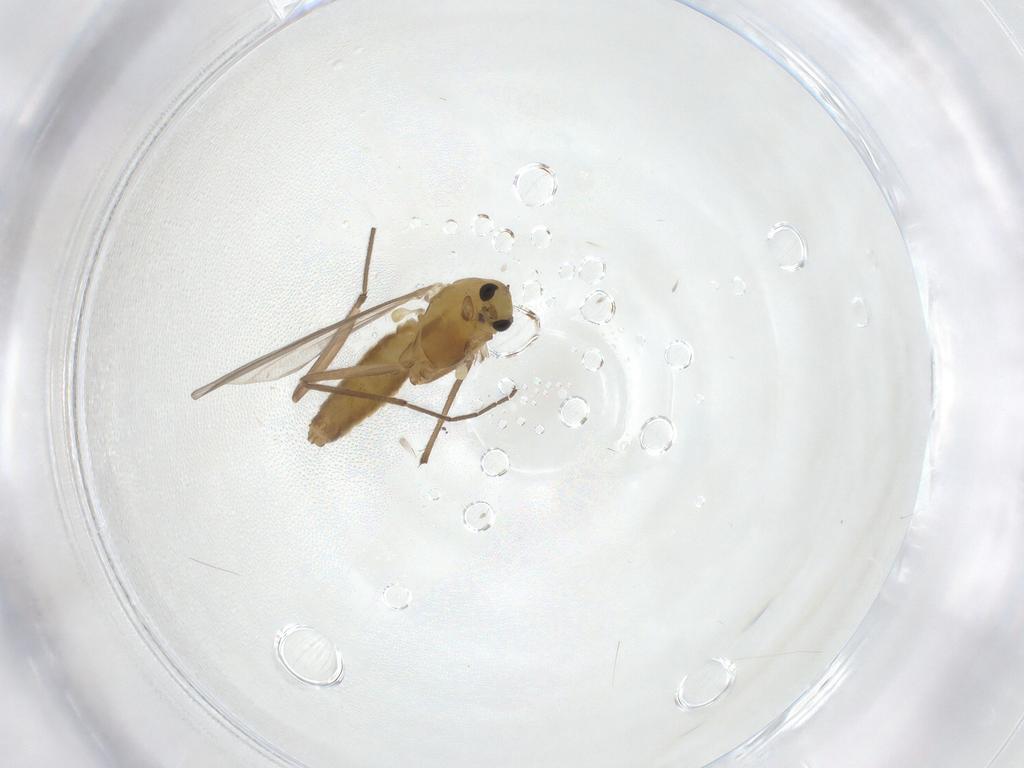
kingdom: Animalia
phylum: Arthropoda
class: Insecta
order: Diptera
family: Chironomidae
